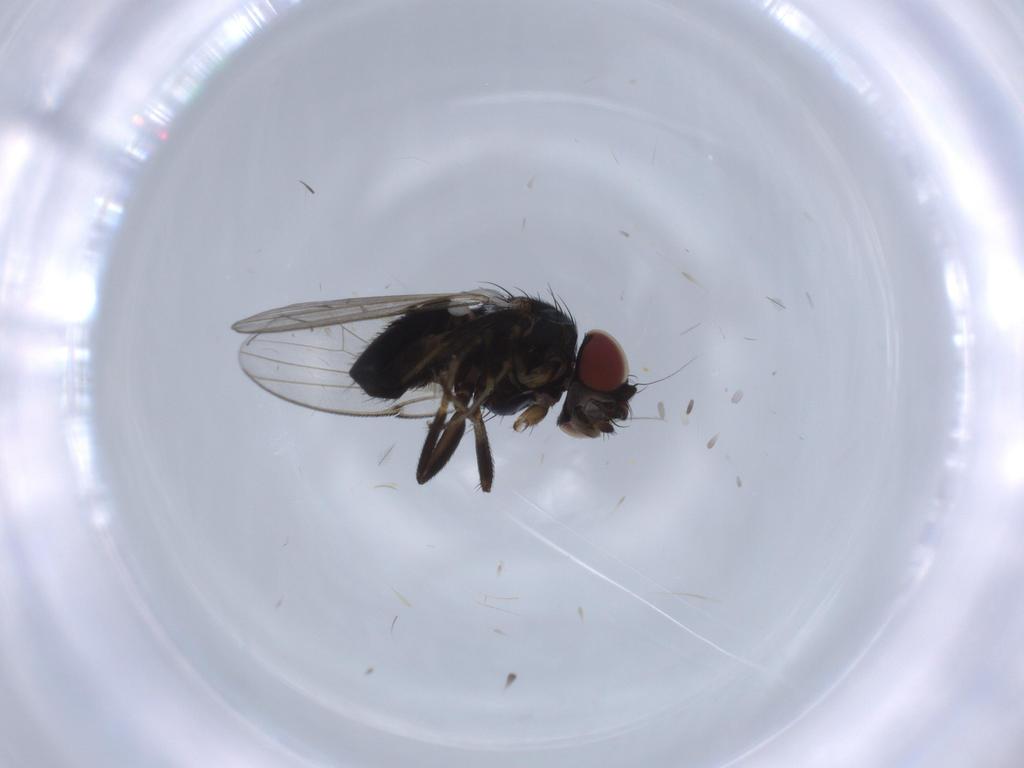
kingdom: Animalia
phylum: Arthropoda
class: Insecta
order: Diptera
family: Milichiidae
